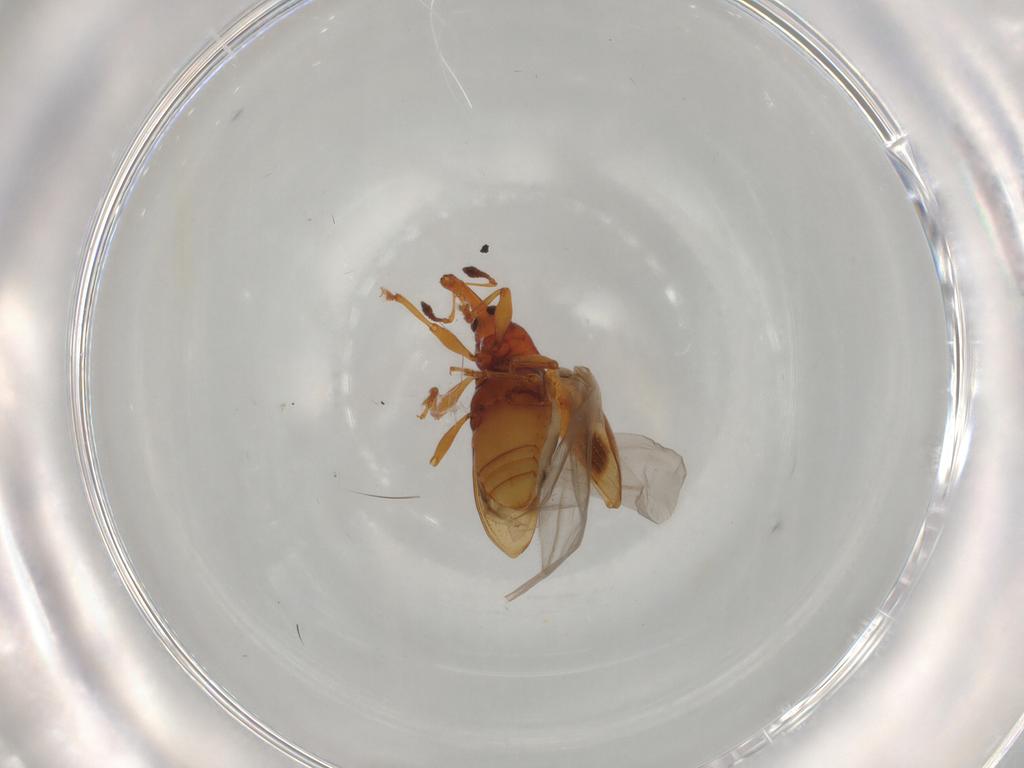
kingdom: Animalia
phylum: Arthropoda
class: Insecta
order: Coleoptera
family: Curculionidae
